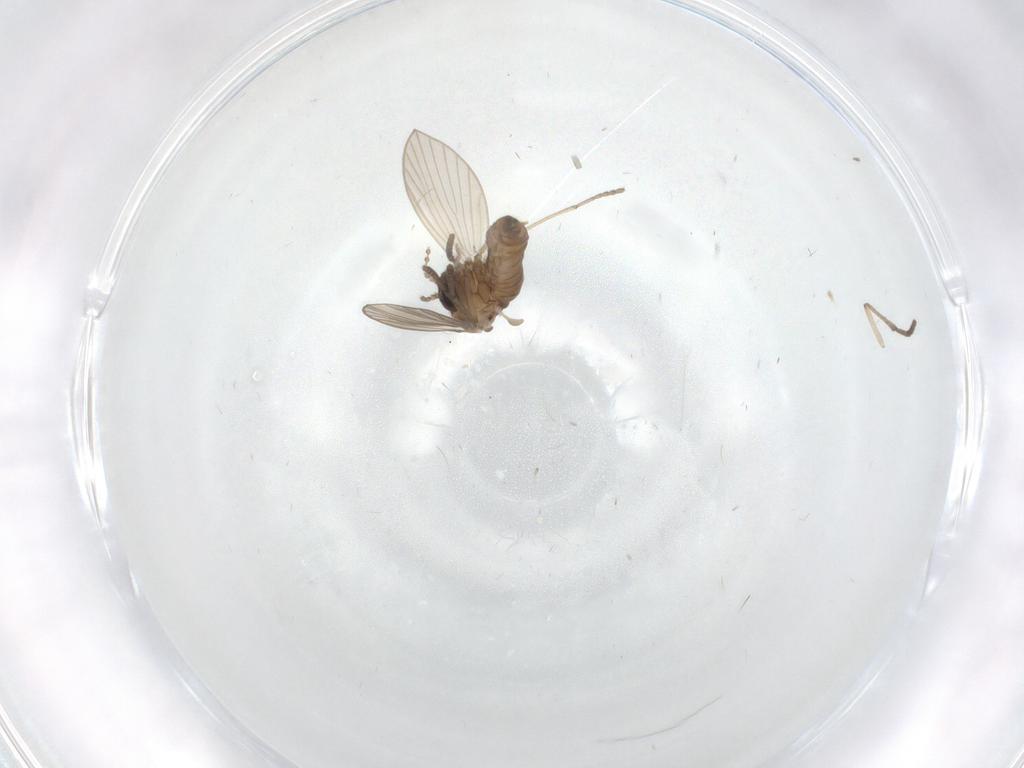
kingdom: Animalia
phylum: Arthropoda
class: Insecta
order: Diptera
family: Psychodidae
